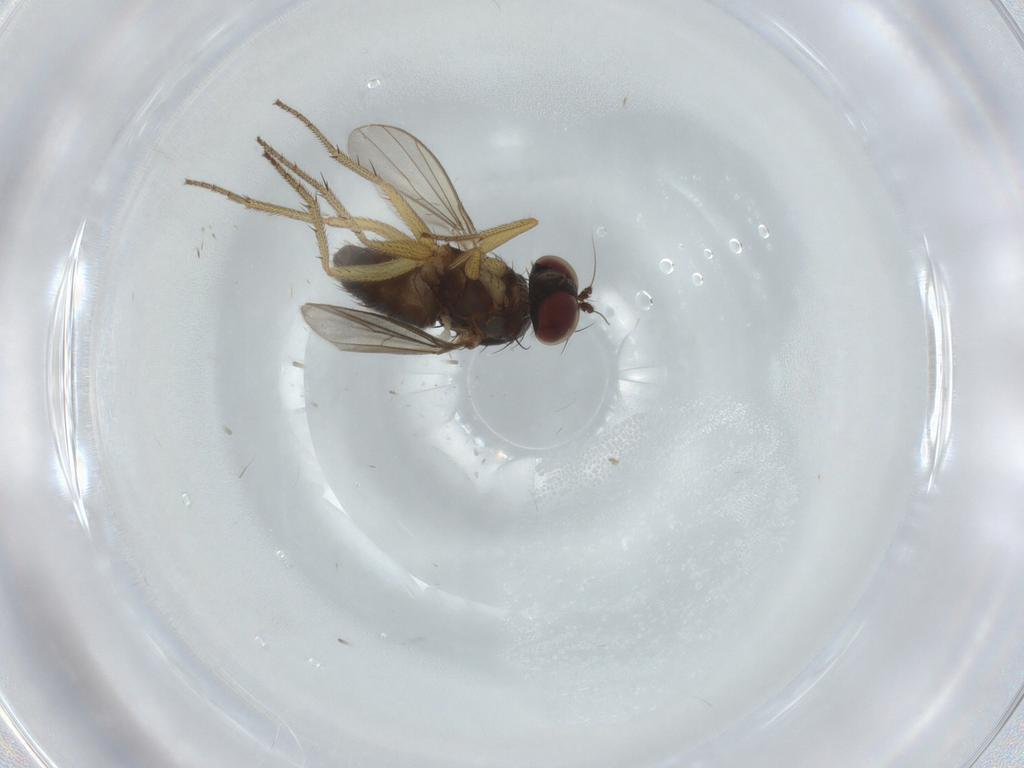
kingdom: Animalia
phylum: Arthropoda
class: Insecta
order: Diptera
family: Dolichopodidae
